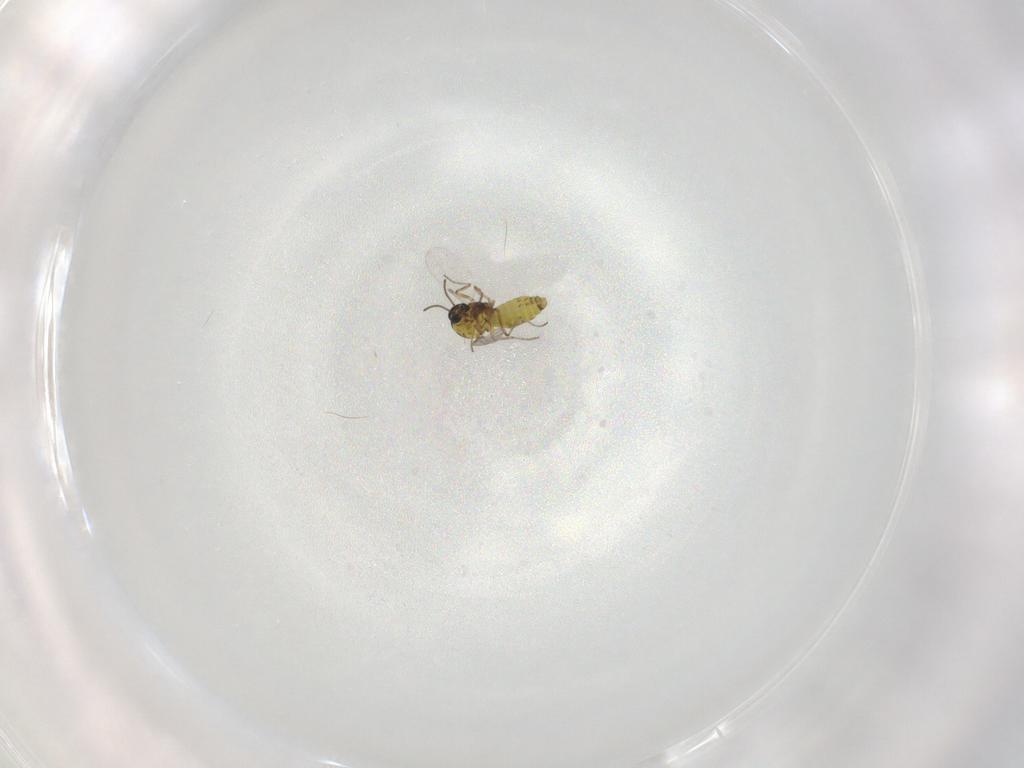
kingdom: Animalia
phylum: Arthropoda
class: Insecta
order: Diptera
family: Ceratopogonidae
